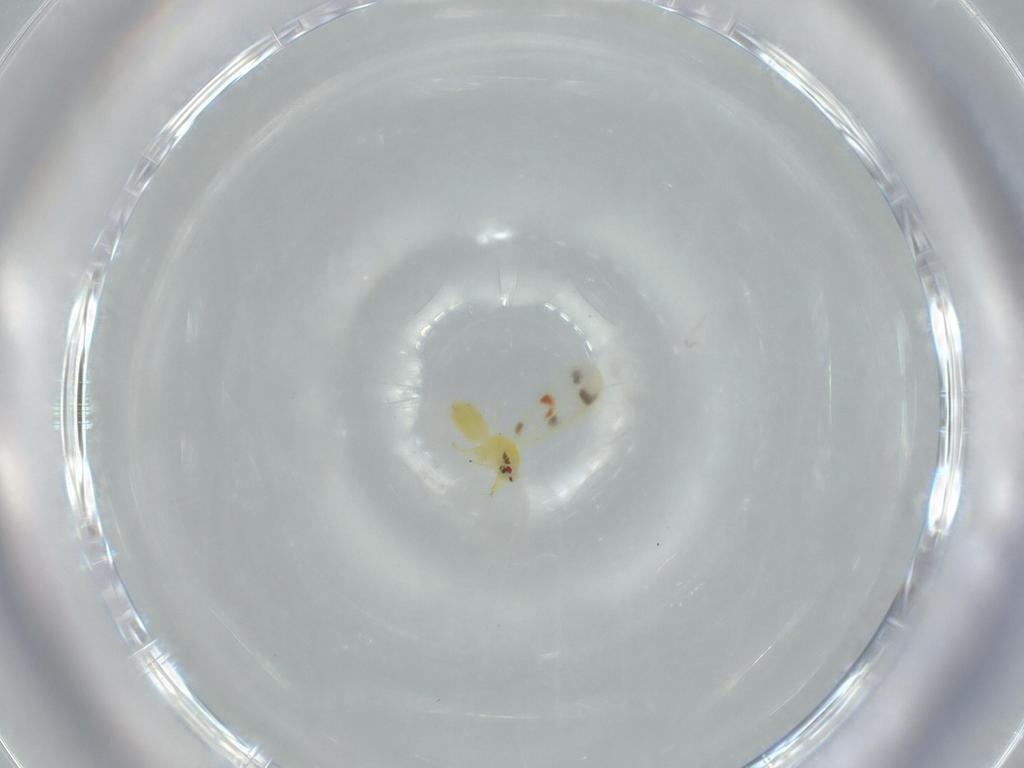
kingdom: Animalia
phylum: Arthropoda
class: Insecta
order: Hemiptera
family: Aleyrodidae
